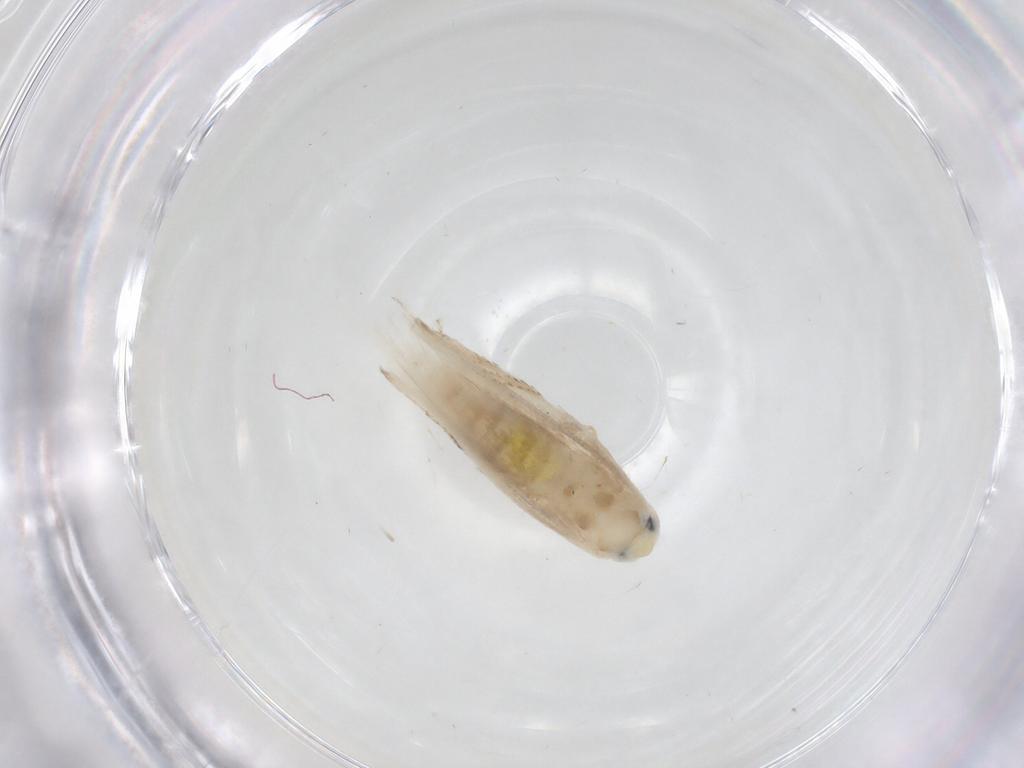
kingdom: Animalia
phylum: Arthropoda
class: Insecta
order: Lepidoptera
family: Lyonetiidae
